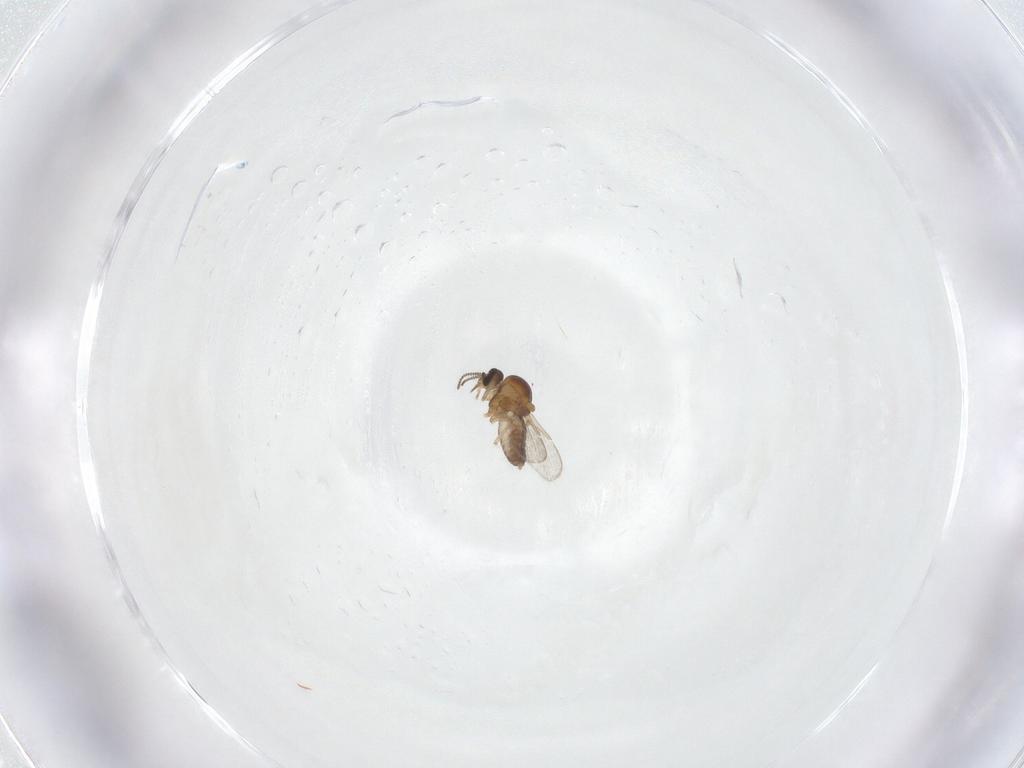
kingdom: Animalia
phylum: Arthropoda
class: Insecta
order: Diptera
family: Ceratopogonidae
